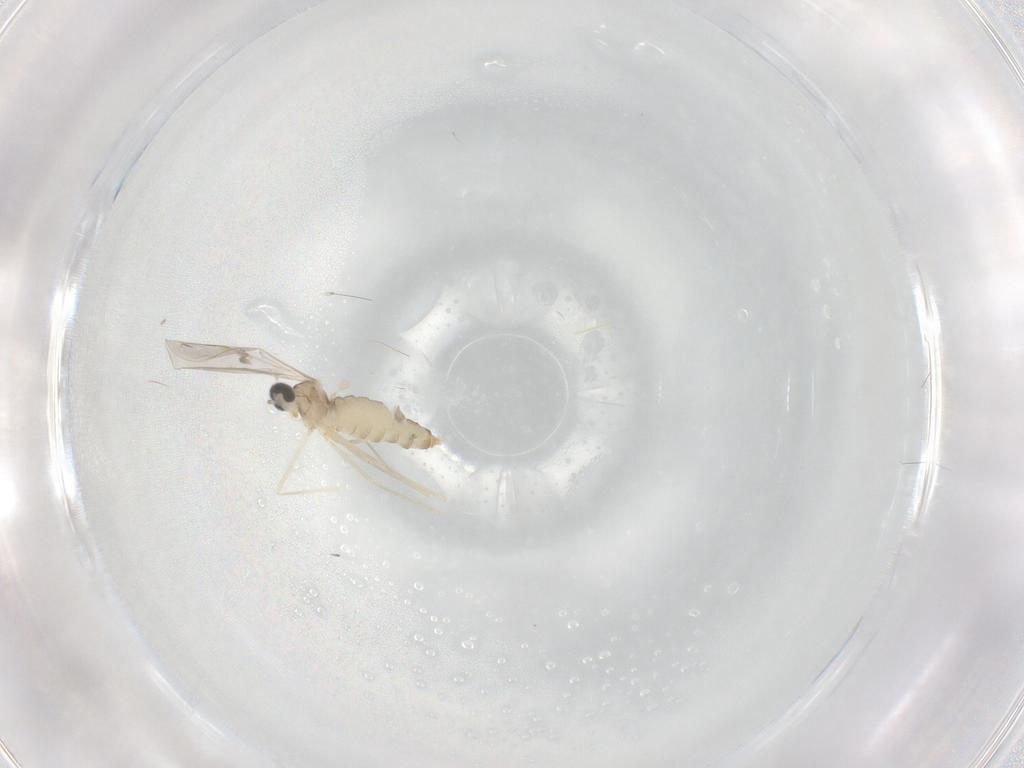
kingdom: Animalia
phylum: Arthropoda
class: Insecta
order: Diptera
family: Cecidomyiidae
